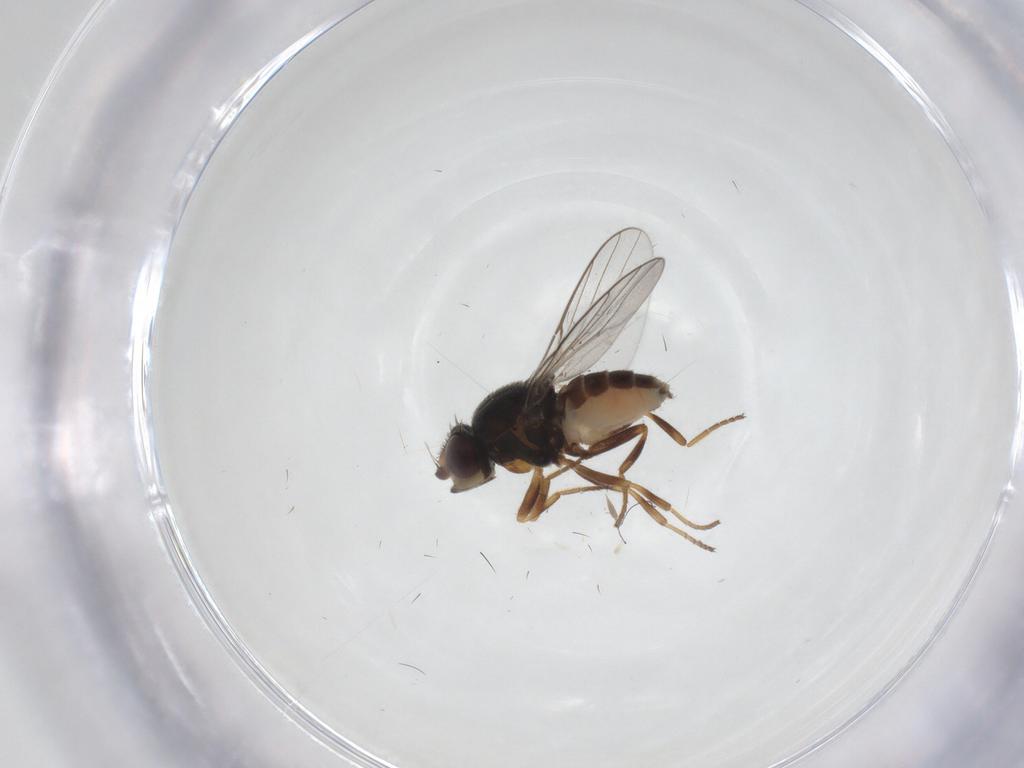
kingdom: Animalia
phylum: Arthropoda
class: Insecta
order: Diptera
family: Chloropidae
